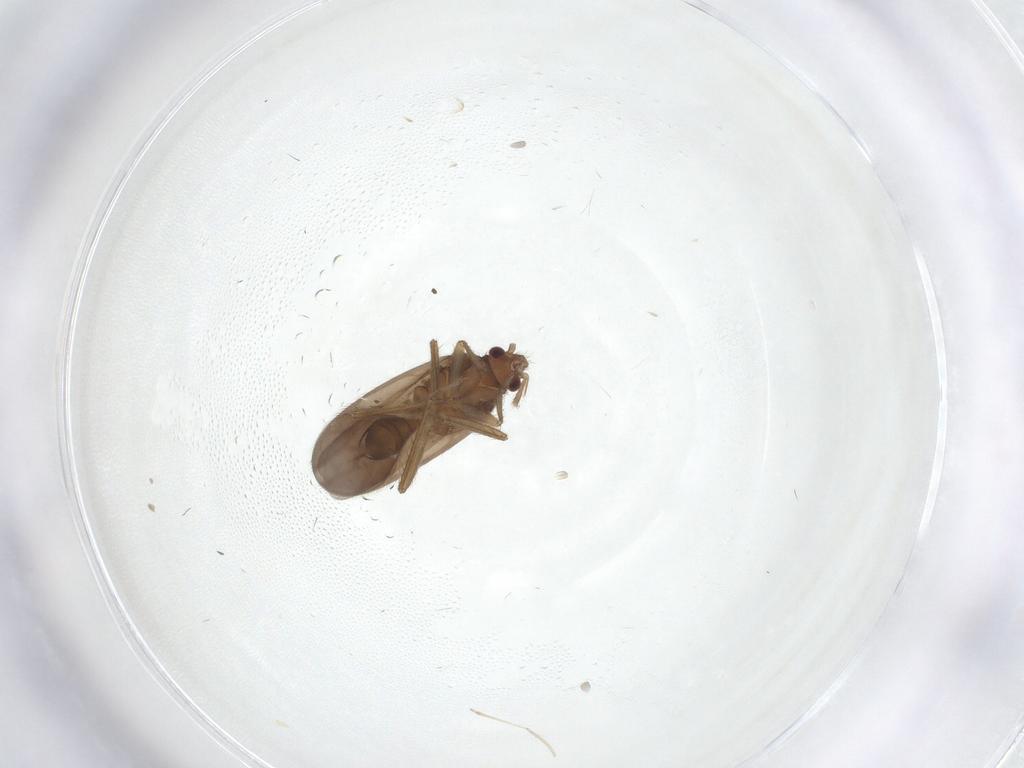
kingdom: Animalia
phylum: Arthropoda
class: Insecta
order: Hemiptera
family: Ceratocombidae
